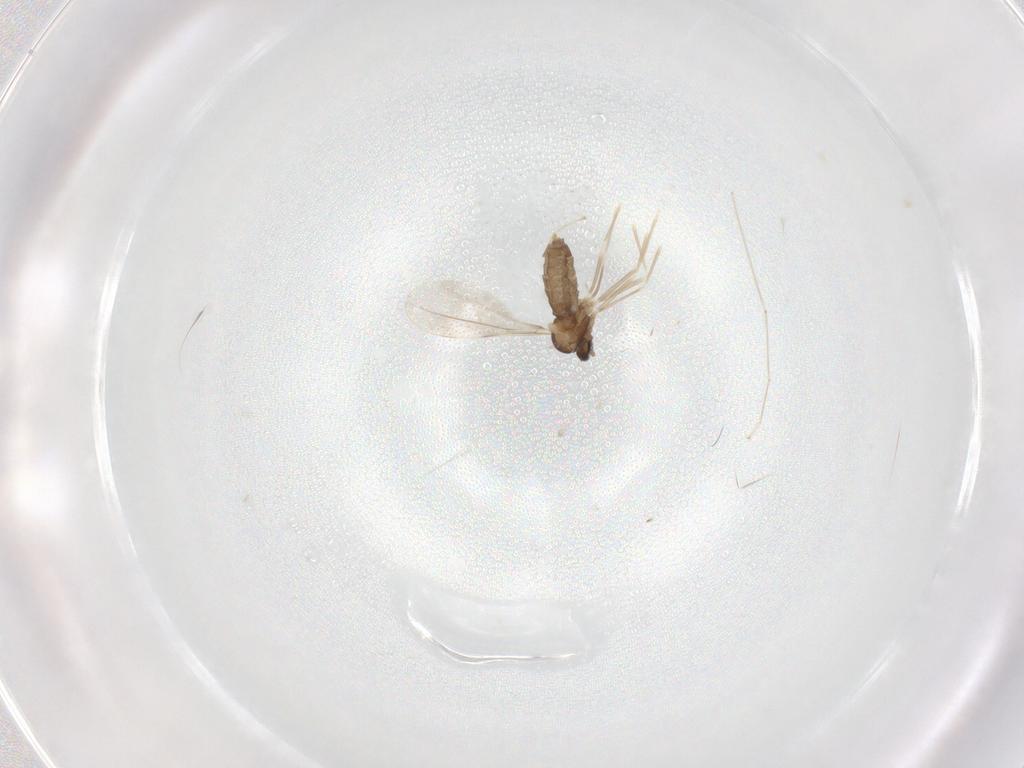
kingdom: Animalia
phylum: Arthropoda
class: Insecta
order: Diptera
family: Cecidomyiidae
